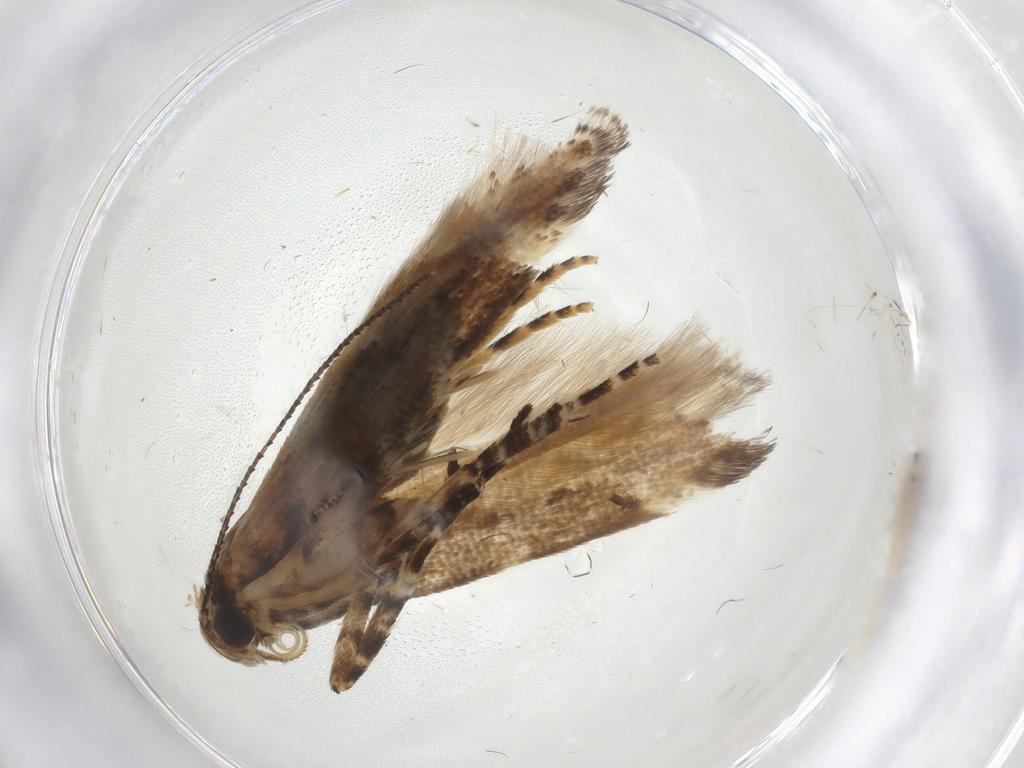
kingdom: Animalia
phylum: Arthropoda
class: Insecta
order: Lepidoptera
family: Gelechiidae
